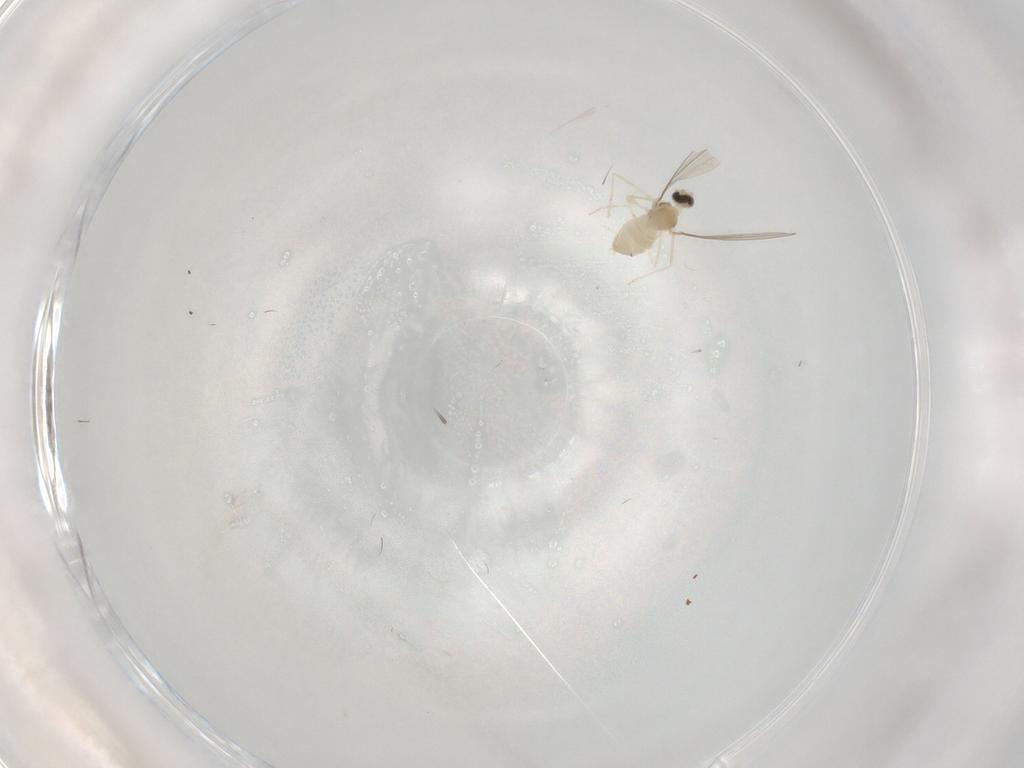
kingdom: Animalia
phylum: Arthropoda
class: Insecta
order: Diptera
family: Cecidomyiidae
